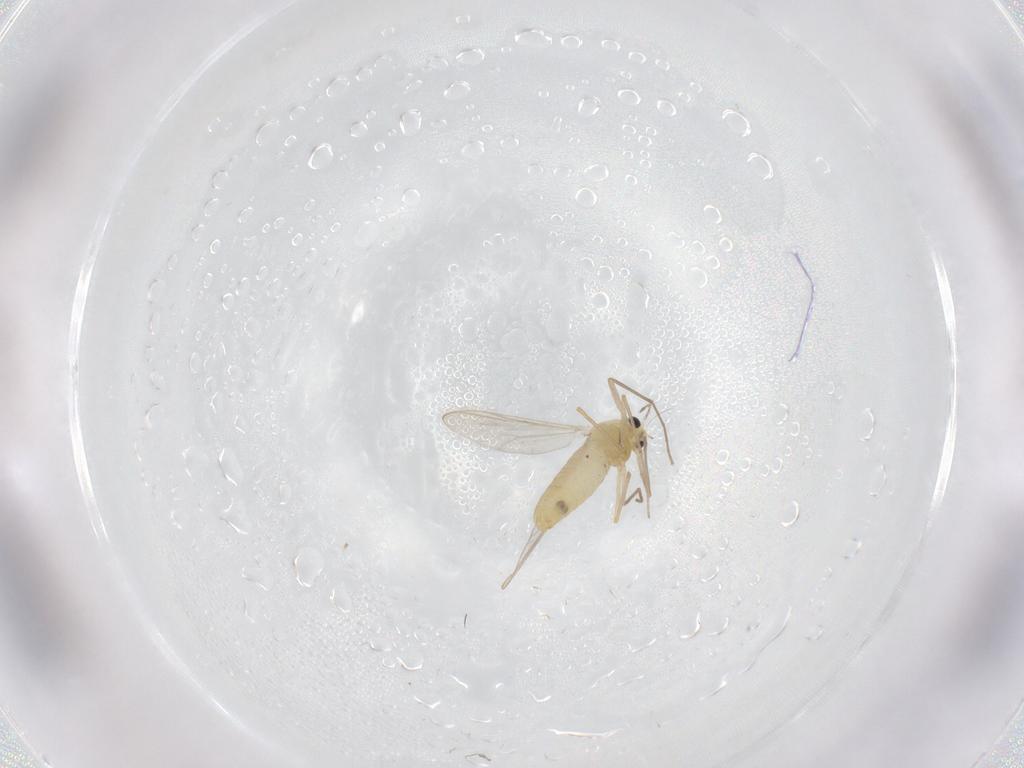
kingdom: Animalia
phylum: Arthropoda
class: Insecta
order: Diptera
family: Chironomidae
